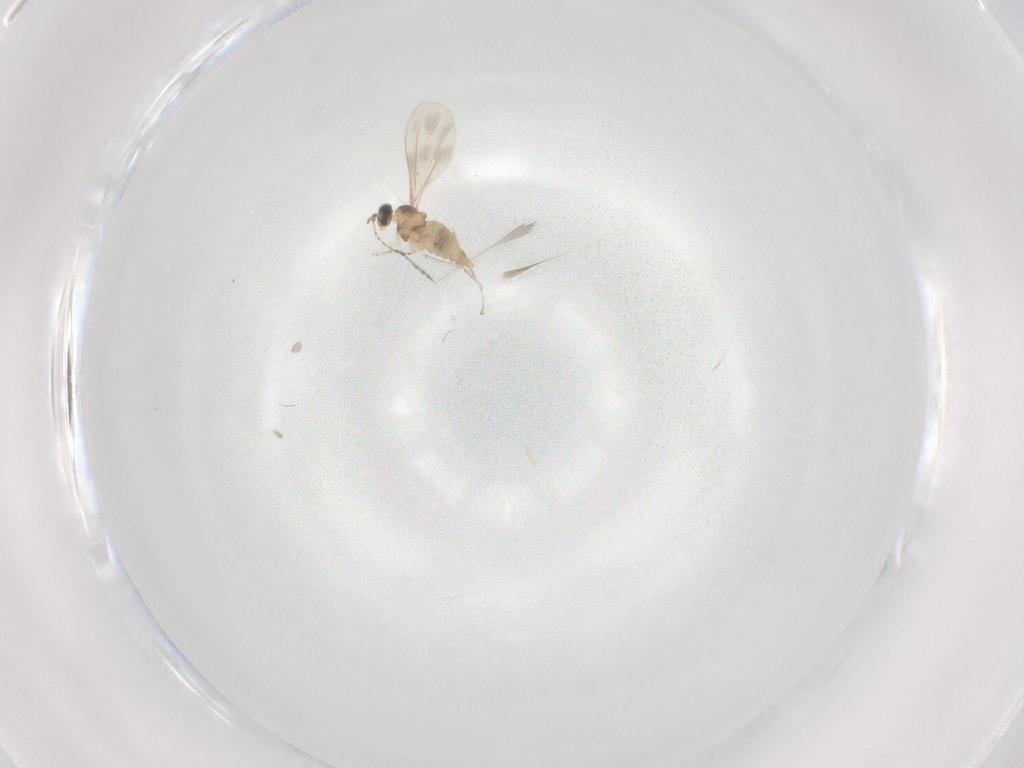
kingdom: Animalia
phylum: Arthropoda
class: Insecta
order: Diptera
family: Cecidomyiidae
